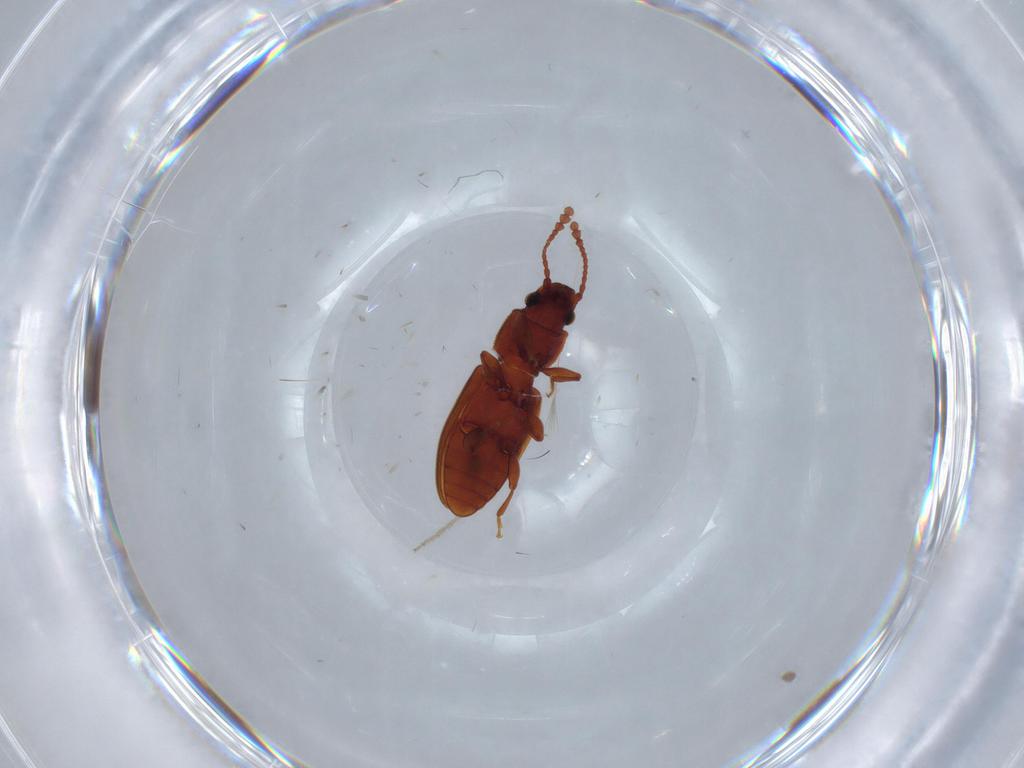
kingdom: Animalia
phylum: Arthropoda
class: Insecta
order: Coleoptera
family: Silvanidae
